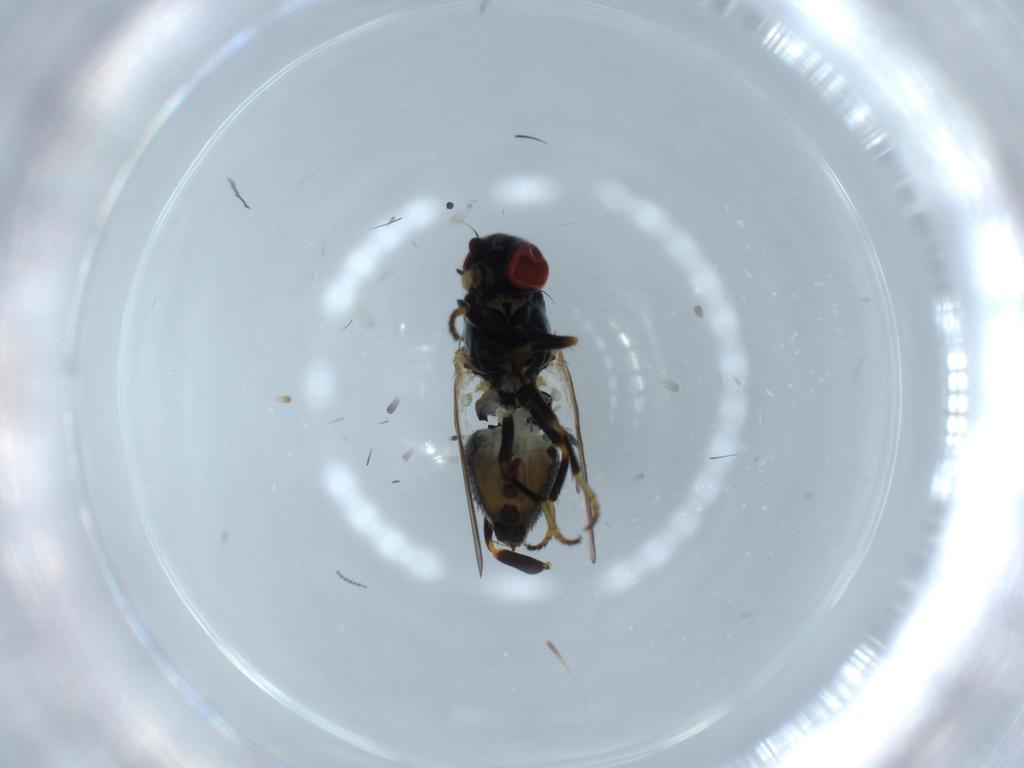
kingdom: Animalia
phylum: Arthropoda
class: Insecta
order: Diptera
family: Chamaemyiidae
